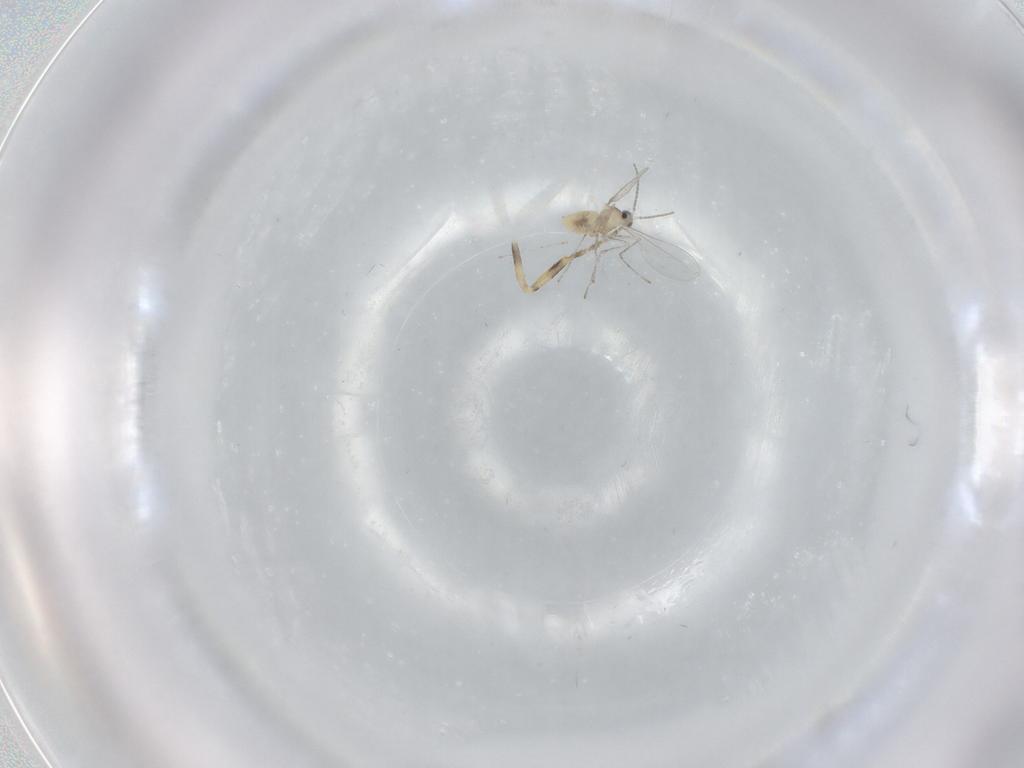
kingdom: Animalia
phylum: Arthropoda
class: Insecta
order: Diptera
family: Cecidomyiidae
